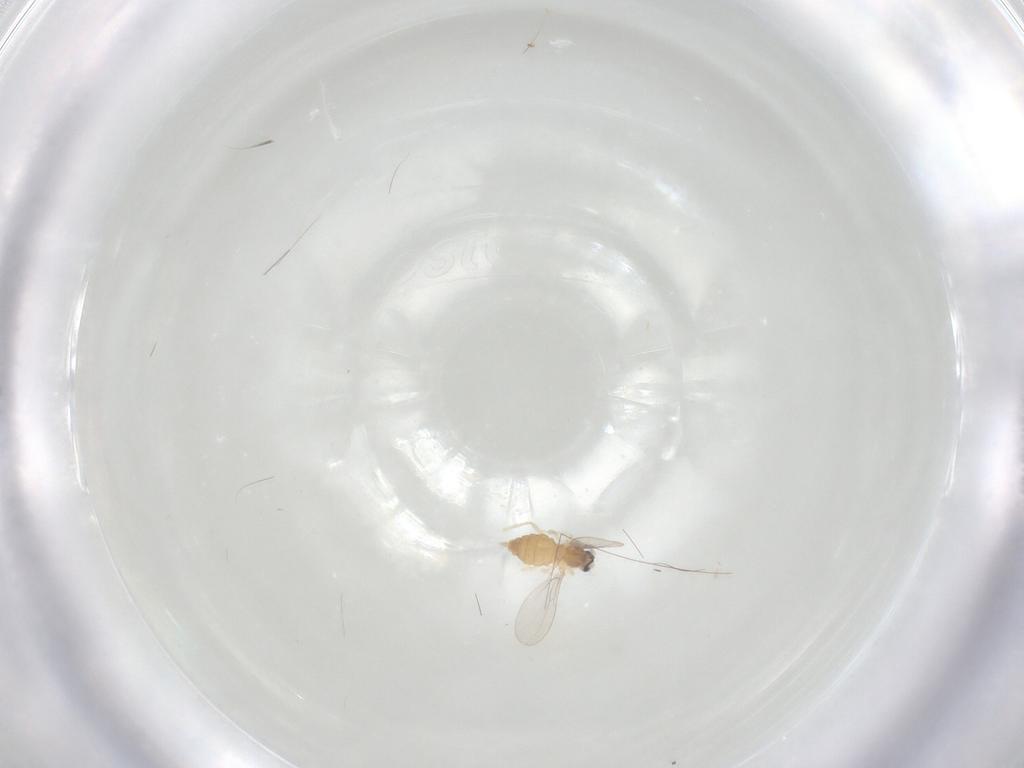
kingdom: Animalia
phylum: Arthropoda
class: Insecta
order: Diptera
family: Cecidomyiidae
